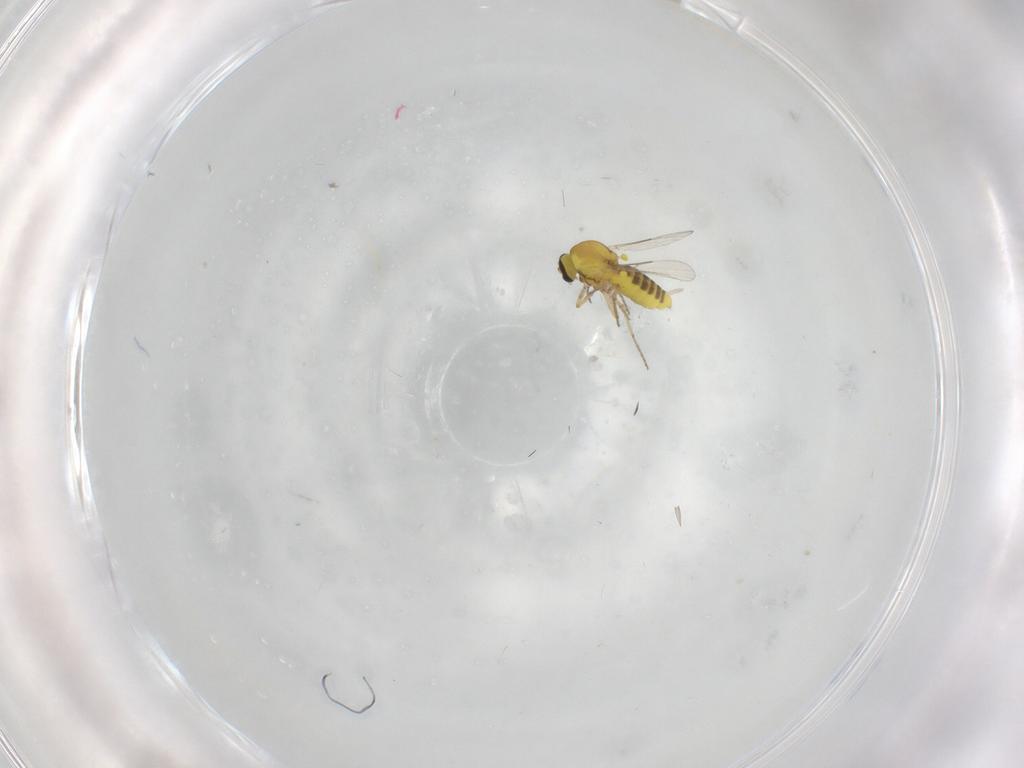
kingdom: Animalia
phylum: Arthropoda
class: Insecta
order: Diptera
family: Ceratopogonidae
